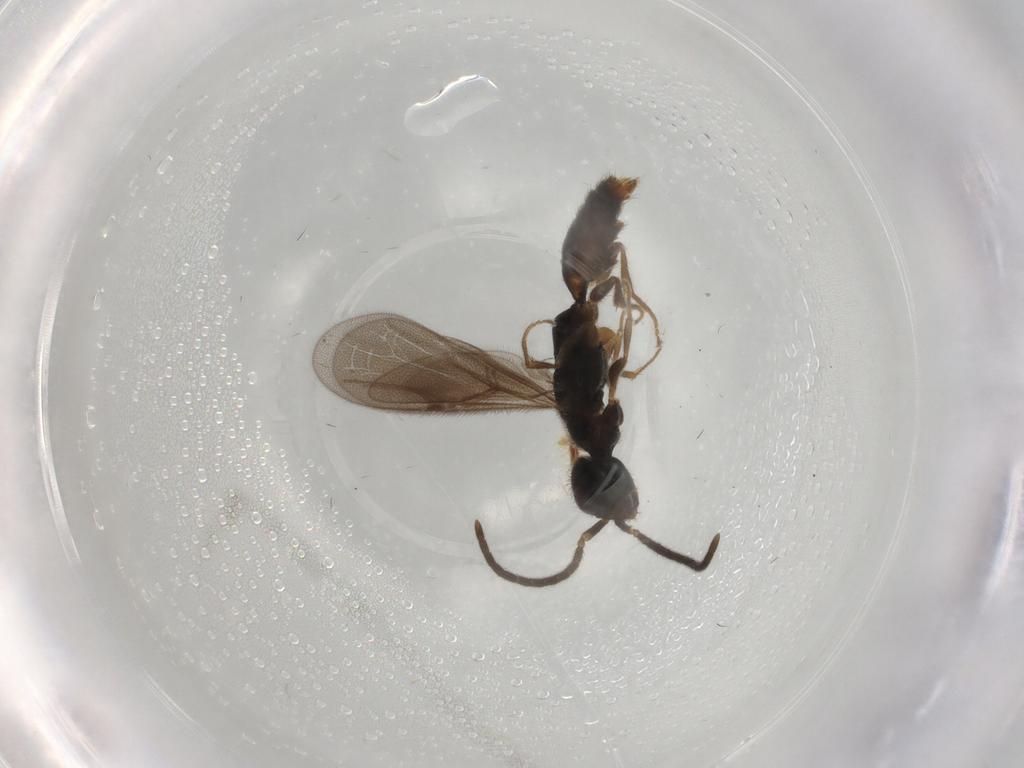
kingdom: Animalia
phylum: Arthropoda
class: Insecta
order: Hymenoptera
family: Bethylidae
